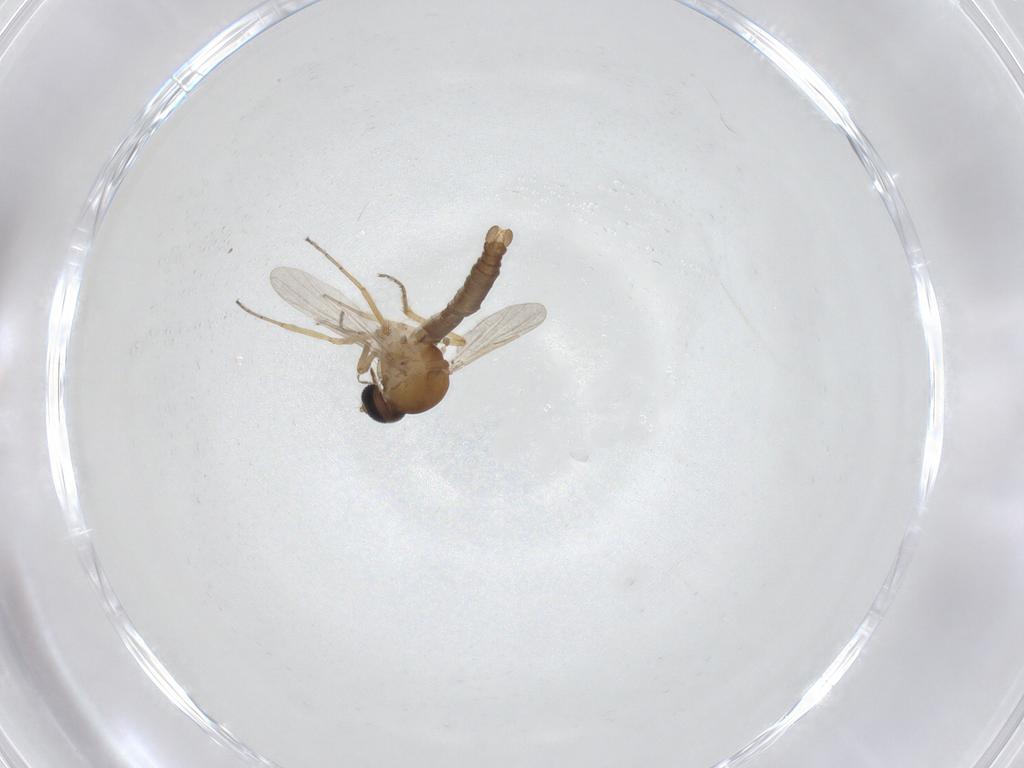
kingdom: Animalia
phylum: Arthropoda
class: Insecta
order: Diptera
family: Ceratopogonidae
